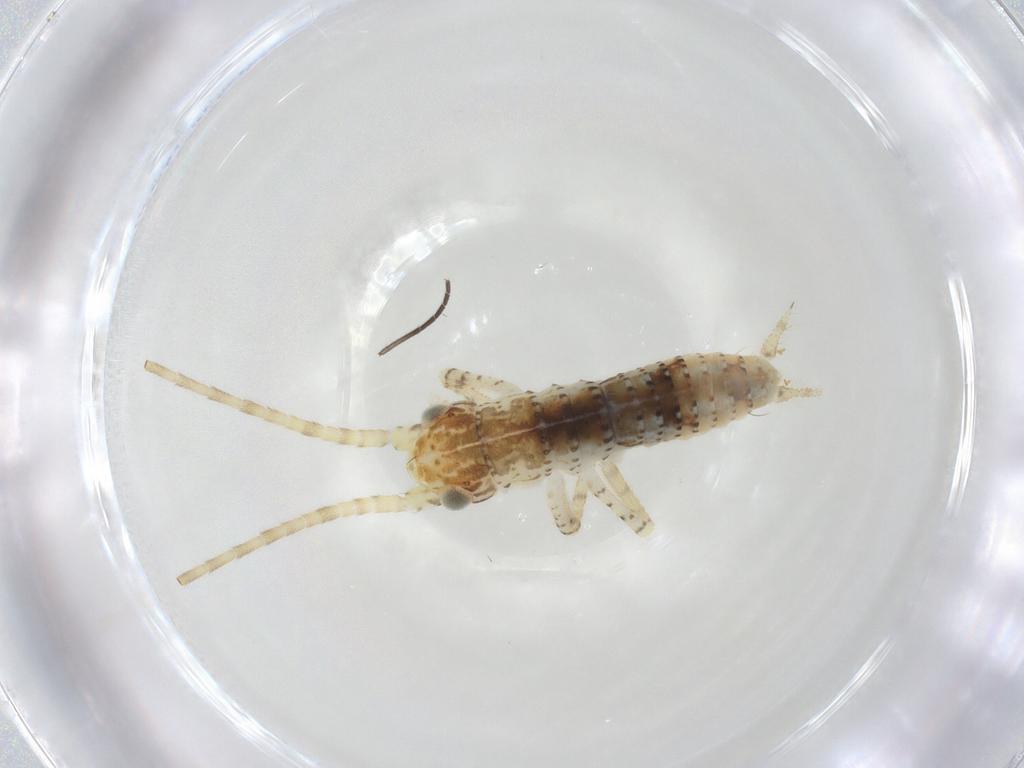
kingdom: Animalia
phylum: Arthropoda
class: Insecta
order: Orthoptera
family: Gryllidae
